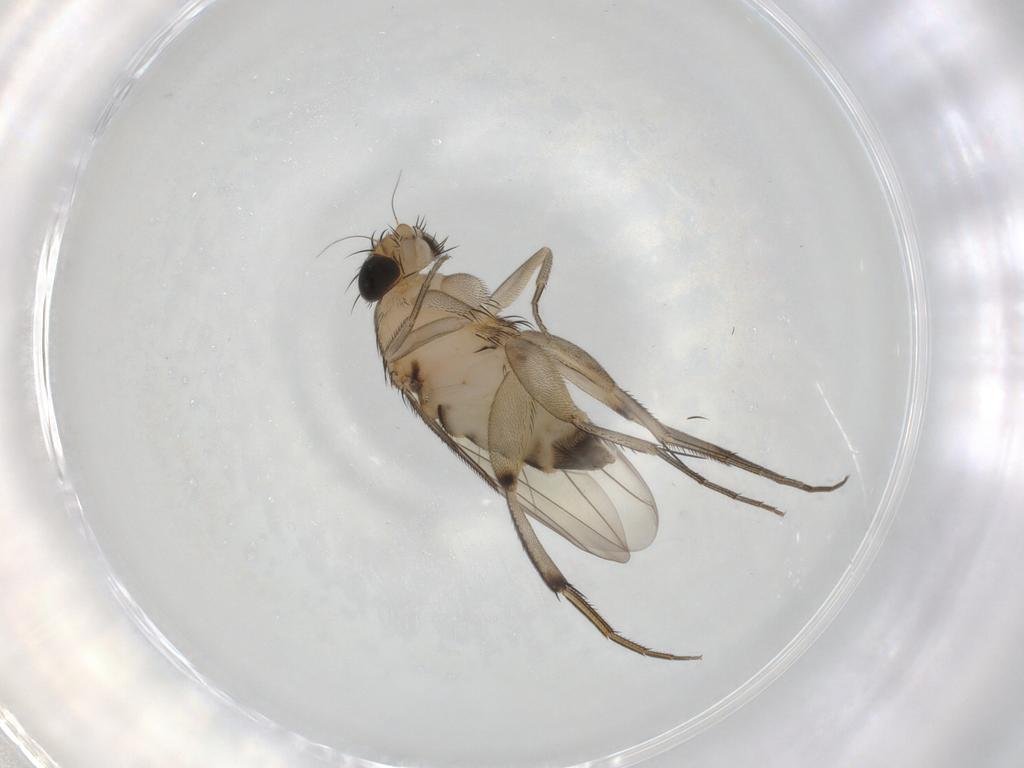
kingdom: Animalia
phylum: Arthropoda
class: Insecta
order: Diptera
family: Phoridae
